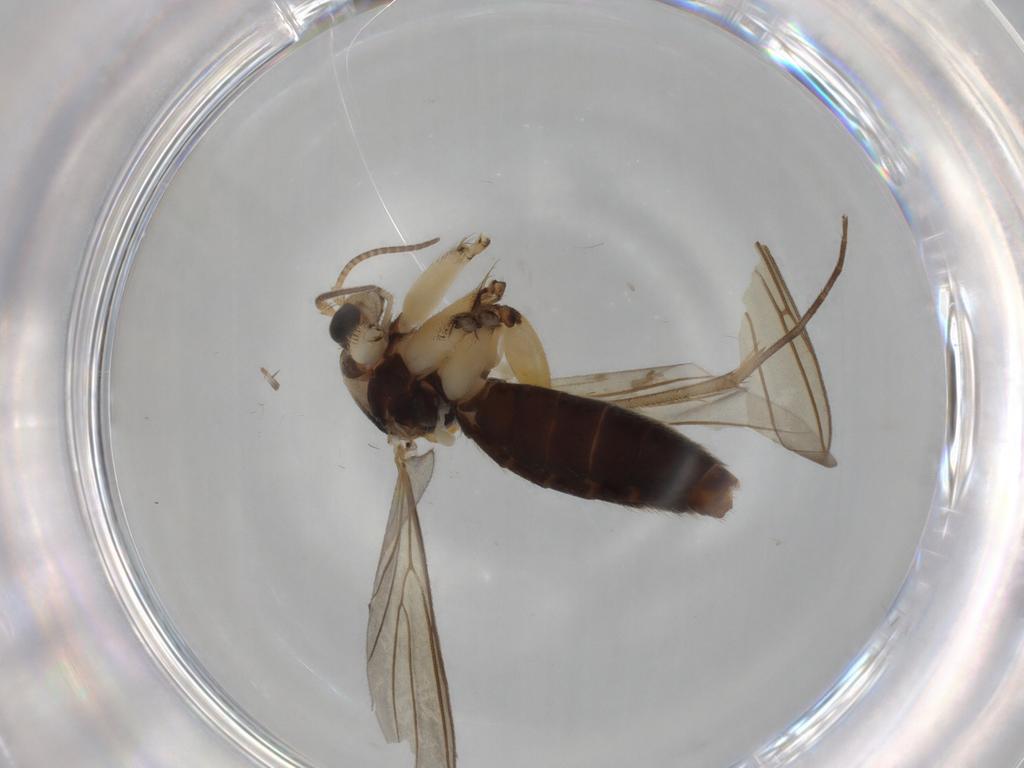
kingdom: Animalia
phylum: Arthropoda
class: Insecta
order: Diptera
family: Mycetophilidae
